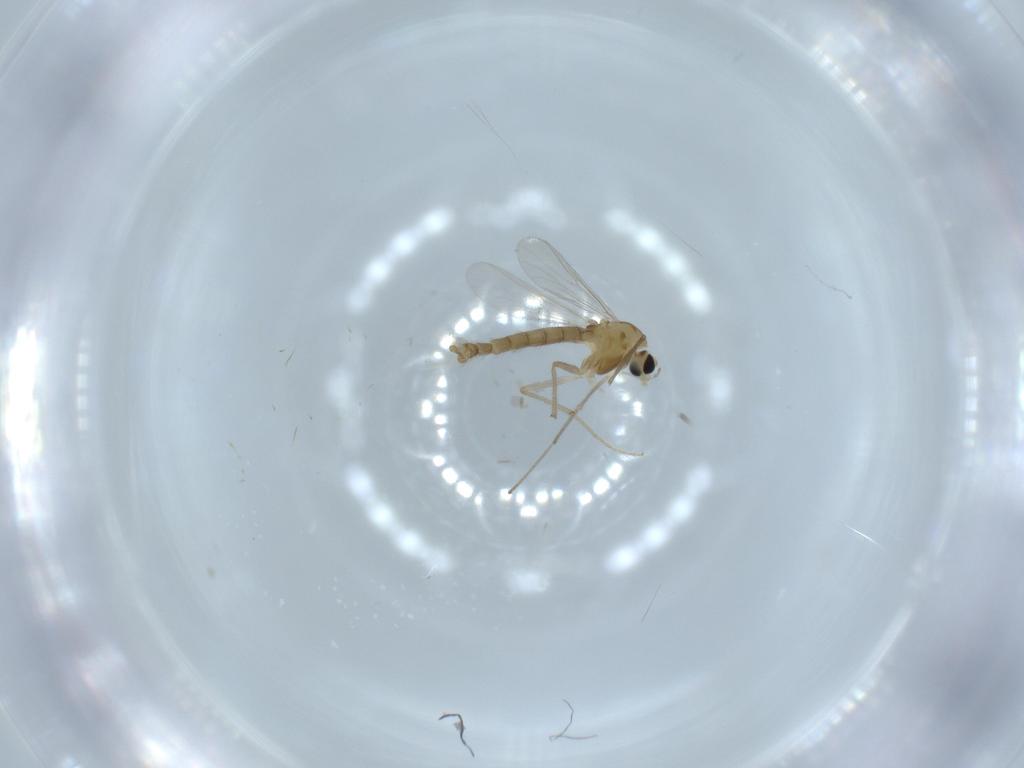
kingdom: Animalia
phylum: Arthropoda
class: Insecta
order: Diptera
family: Chironomidae
